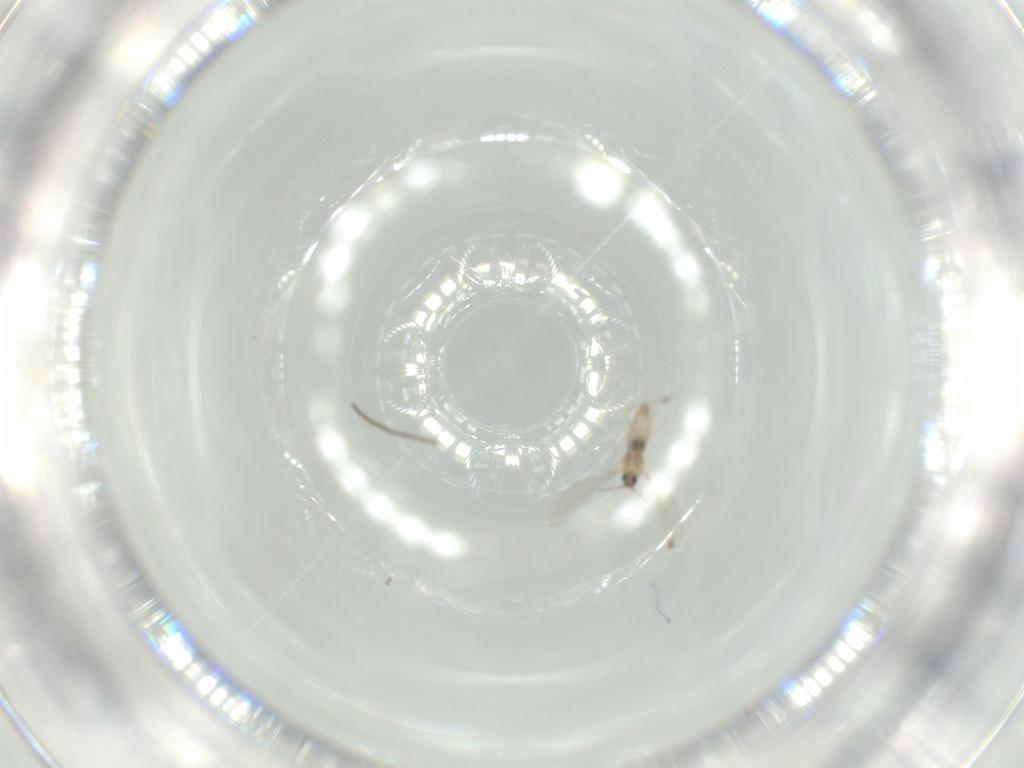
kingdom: Animalia
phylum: Arthropoda
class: Insecta
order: Diptera
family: Cecidomyiidae
